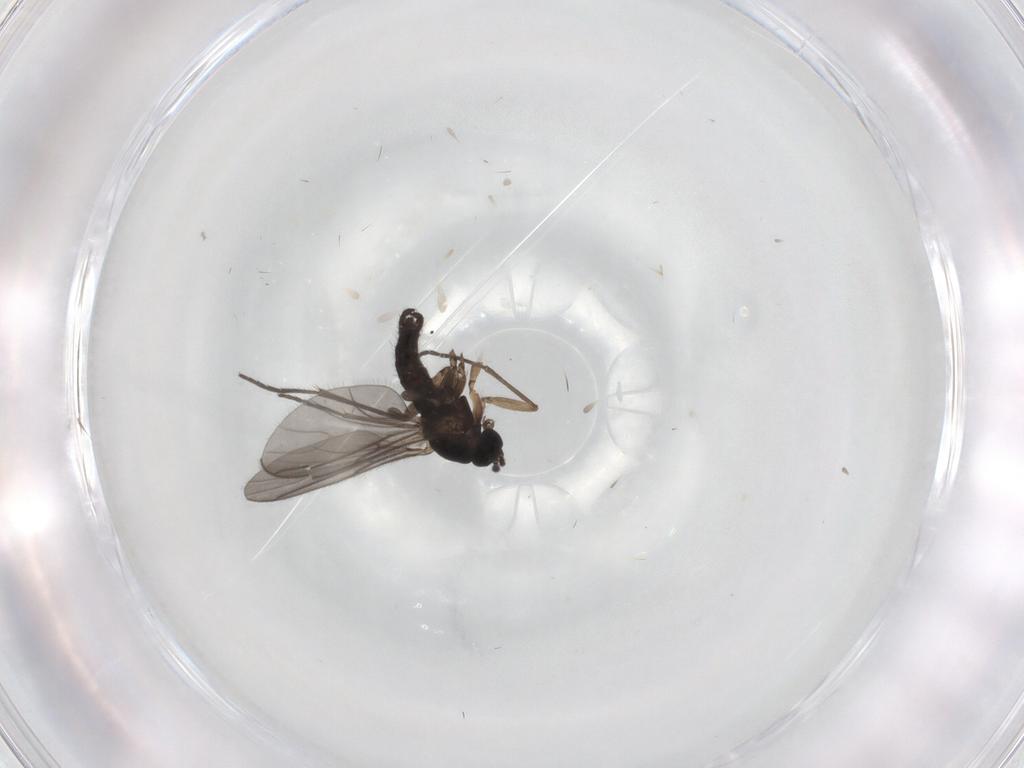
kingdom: Animalia
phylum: Arthropoda
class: Insecta
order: Diptera
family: Sciaridae
